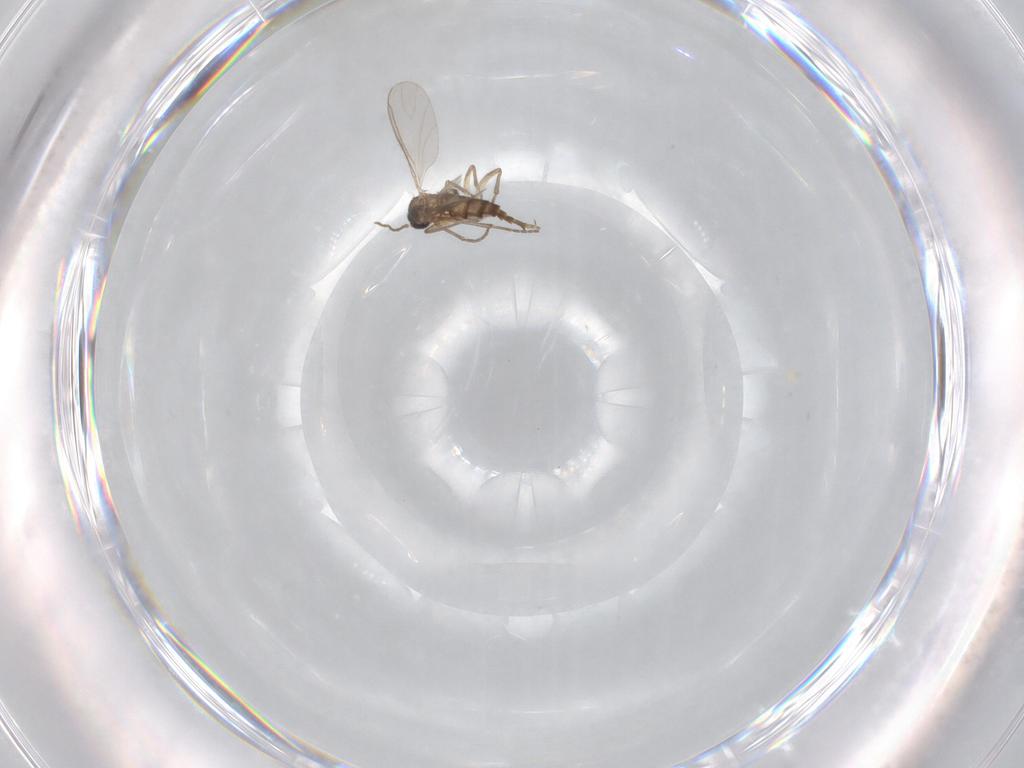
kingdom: Animalia
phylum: Arthropoda
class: Insecta
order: Diptera
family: Sciaridae
